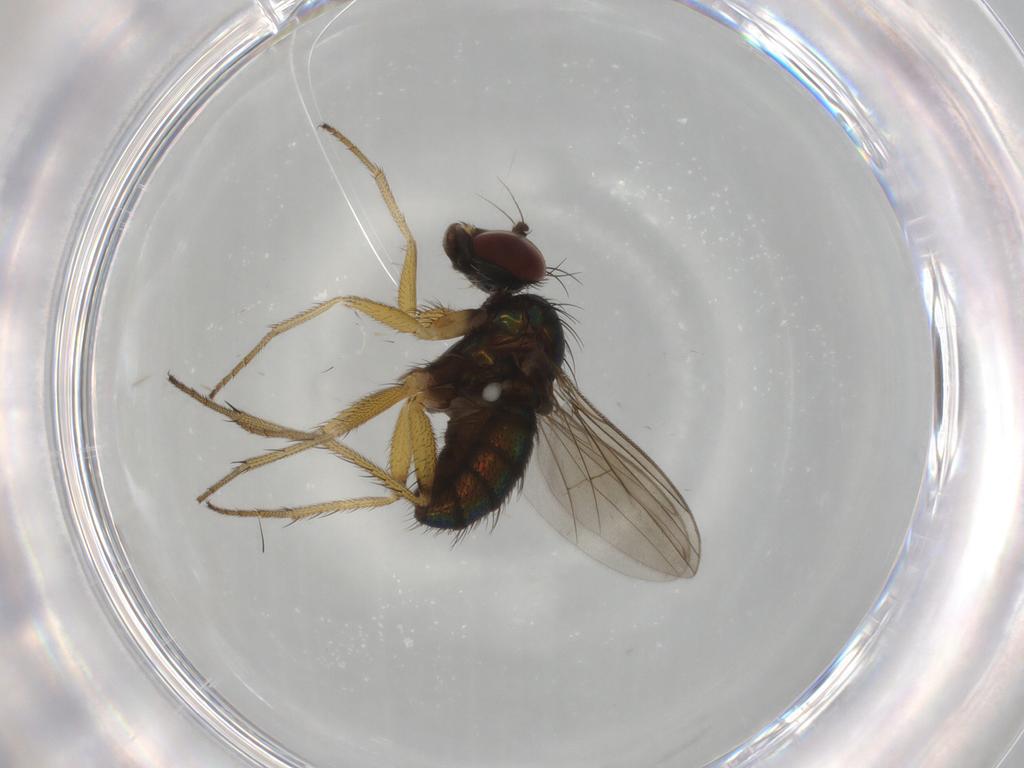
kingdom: Animalia
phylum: Arthropoda
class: Insecta
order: Diptera
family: Dolichopodidae
